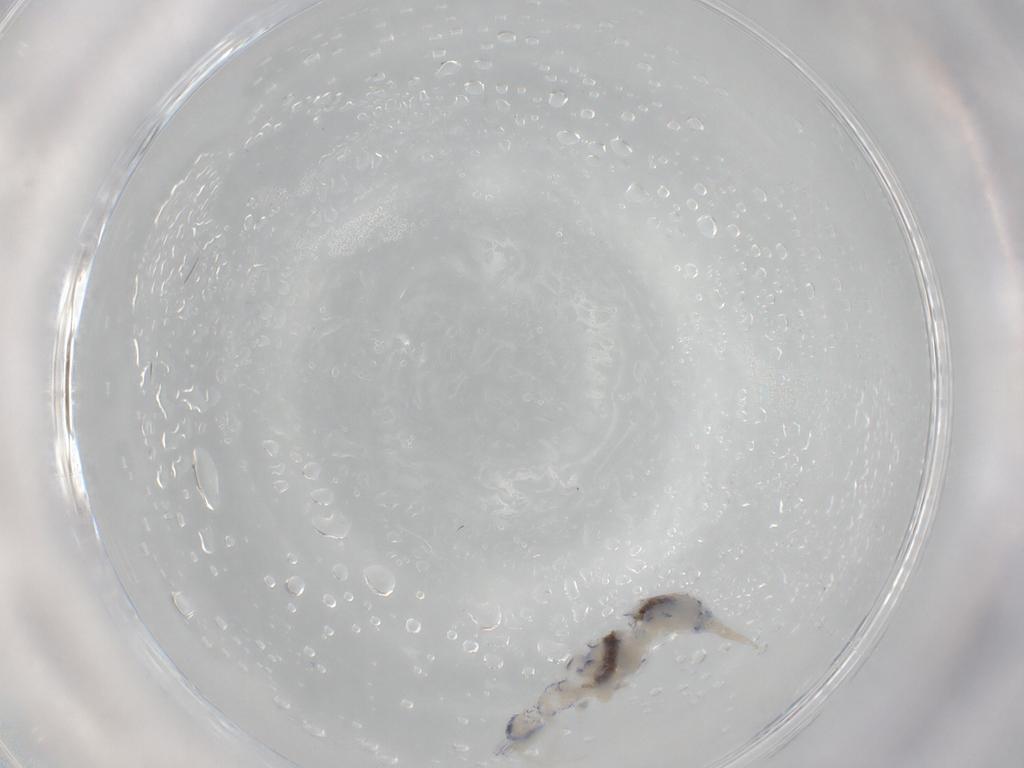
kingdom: Animalia
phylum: Arthropoda
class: Collembola
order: Entomobryomorpha
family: Entomobryidae
